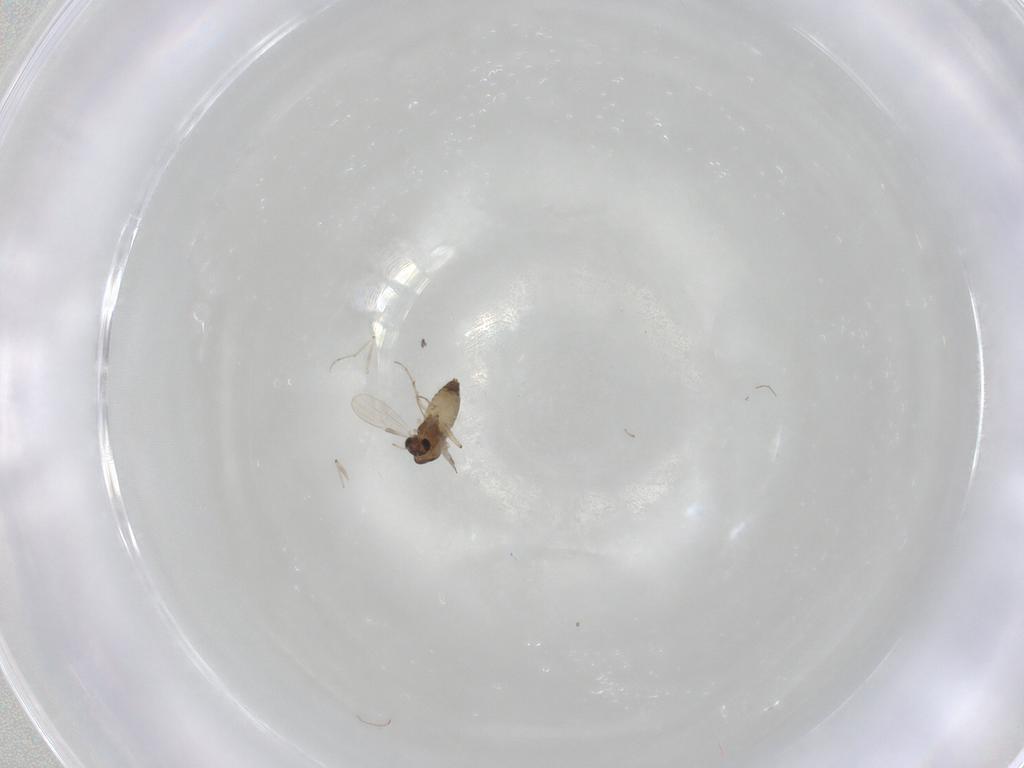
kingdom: Animalia
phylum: Arthropoda
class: Insecta
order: Diptera
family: Chironomidae
